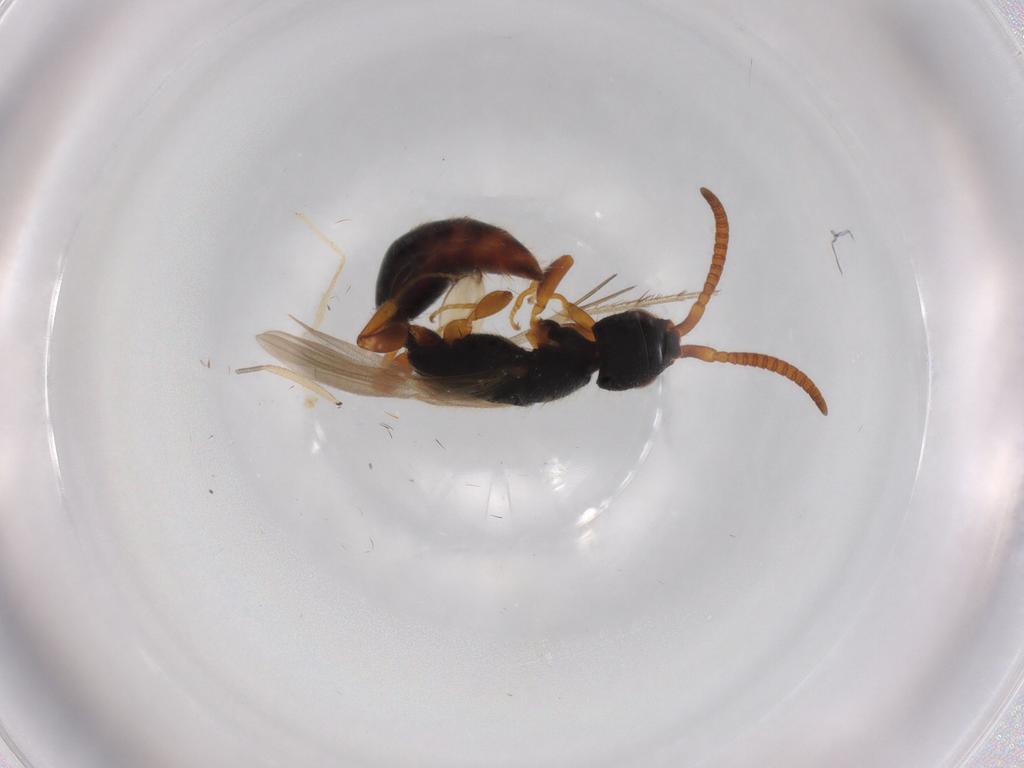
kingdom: Animalia
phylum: Arthropoda
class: Insecta
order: Hymenoptera
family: Bethylidae
